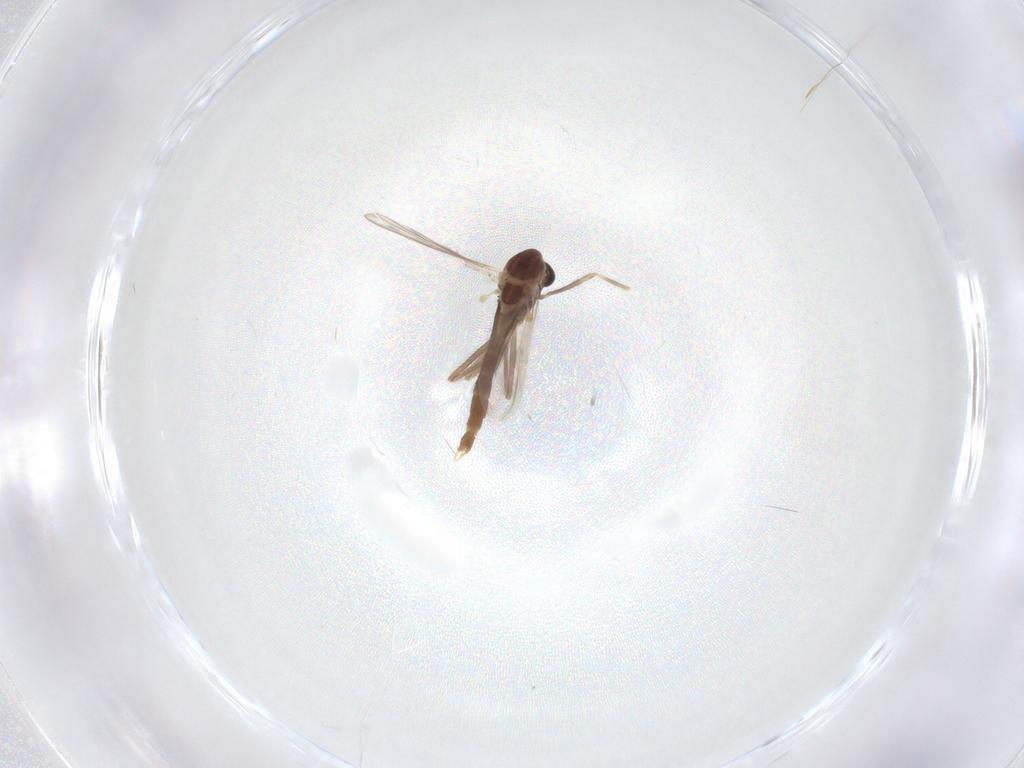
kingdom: Animalia
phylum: Arthropoda
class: Insecta
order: Diptera
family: Chironomidae
